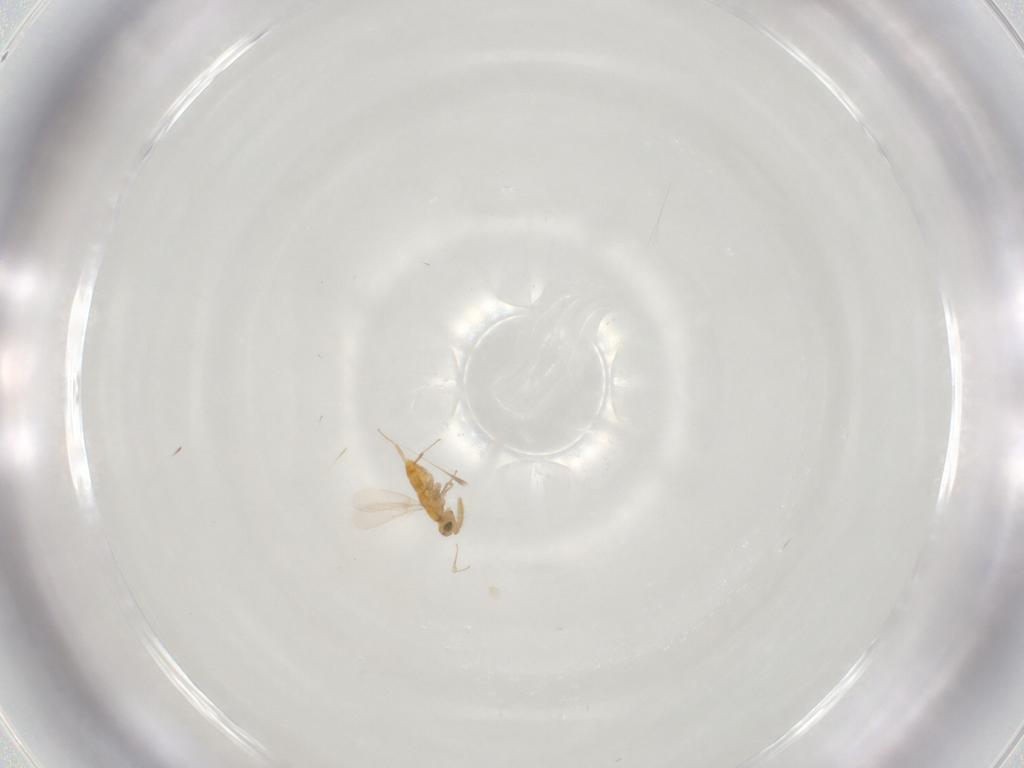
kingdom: Animalia
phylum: Arthropoda
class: Insecta
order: Hymenoptera
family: Aphelinidae
